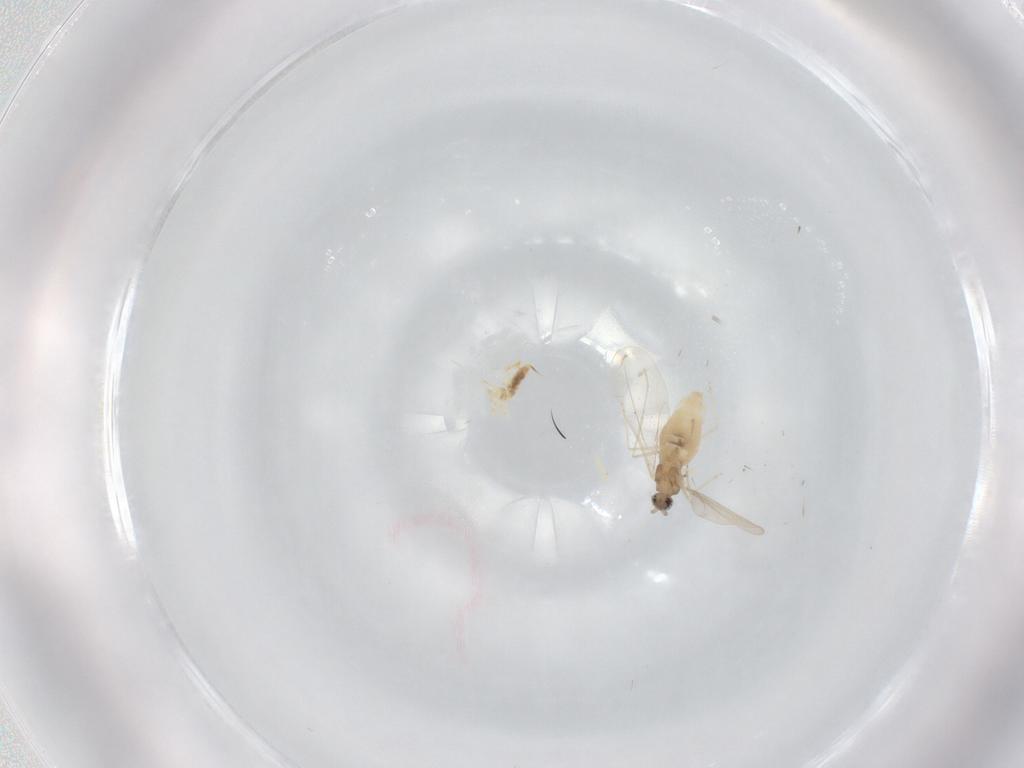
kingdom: Animalia
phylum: Arthropoda
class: Insecta
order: Diptera
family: Cecidomyiidae
